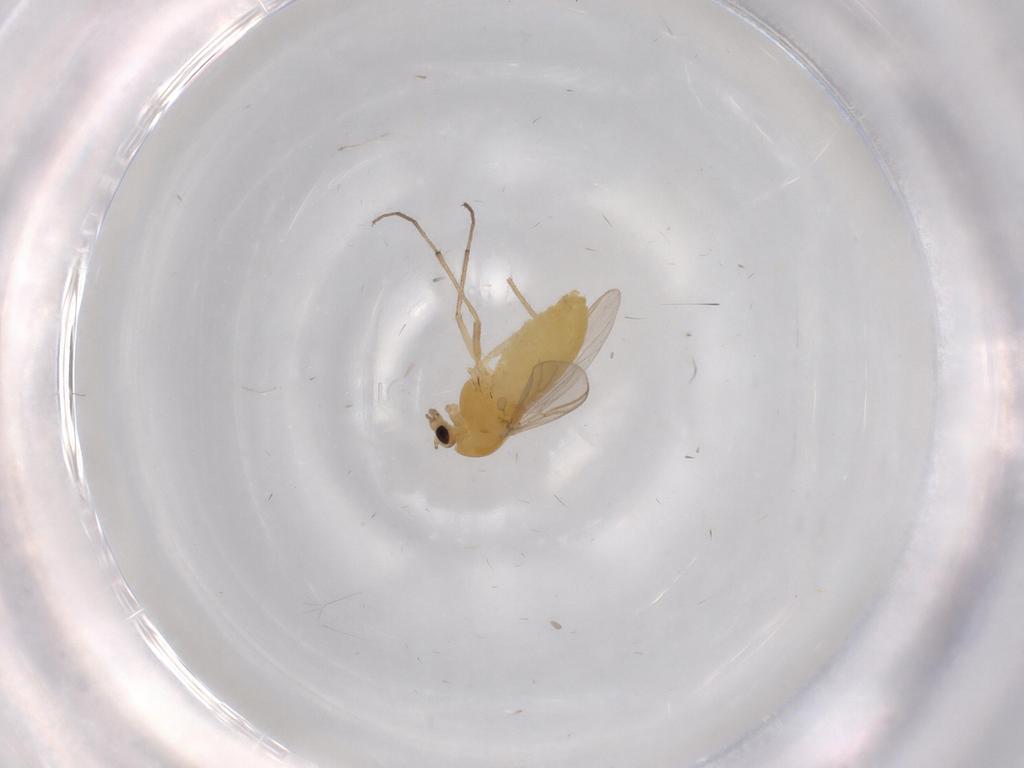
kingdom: Animalia
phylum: Arthropoda
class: Insecta
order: Diptera
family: Chironomidae
